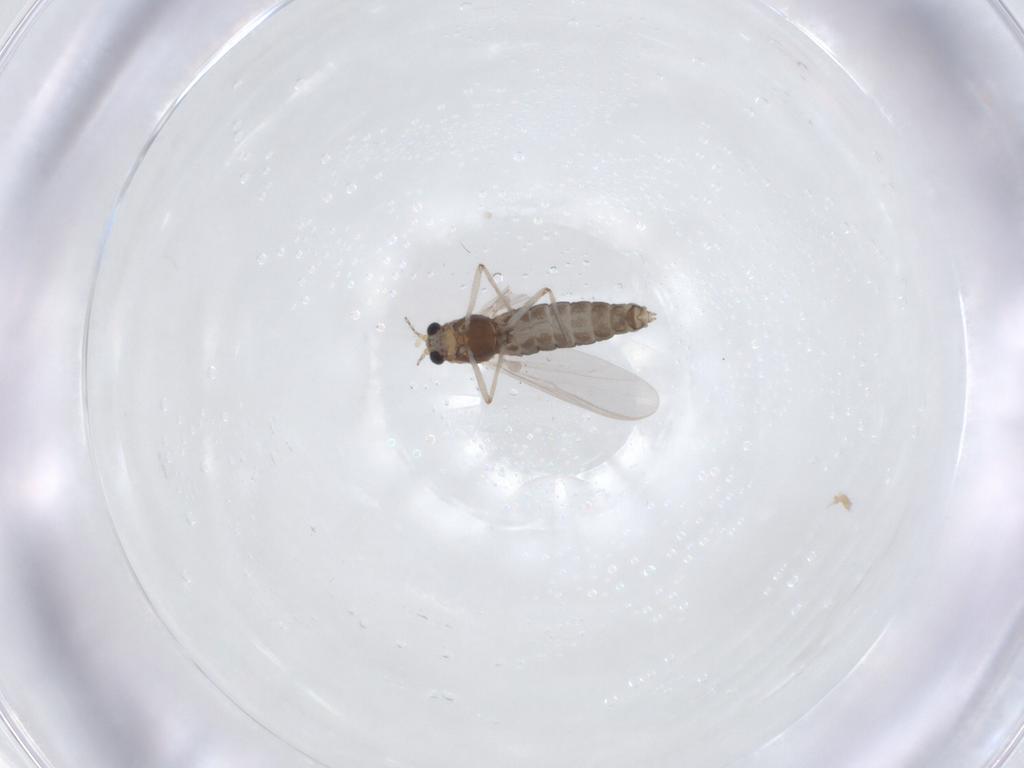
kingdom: Animalia
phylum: Arthropoda
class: Insecta
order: Diptera
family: Chironomidae
